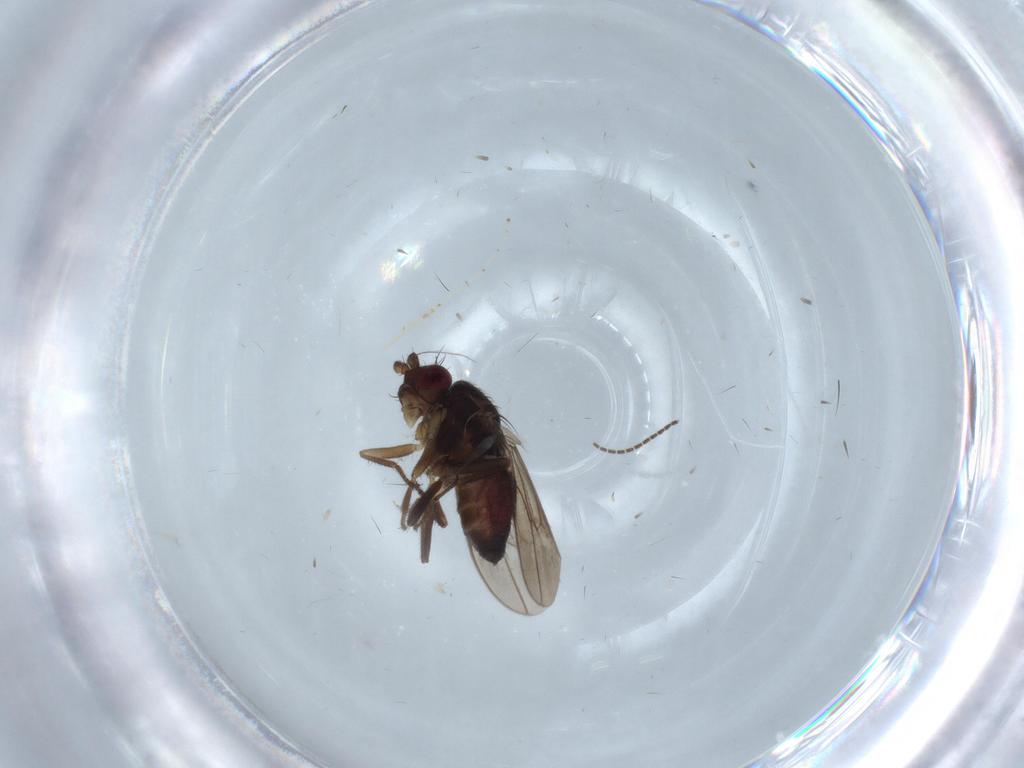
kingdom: Animalia
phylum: Arthropoda
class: Insecta
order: Diptera
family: Sphaeroceridae
